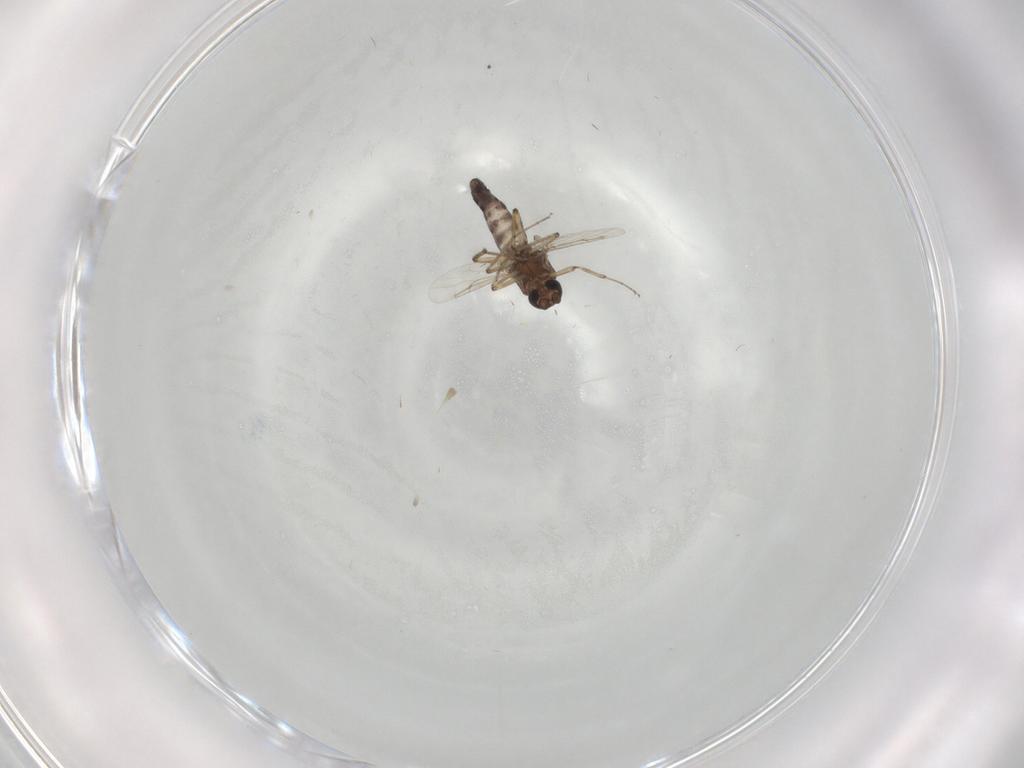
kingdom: Animalia
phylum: Arthropoda
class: Insecta
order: Diptera
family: Ceratopogonidae
